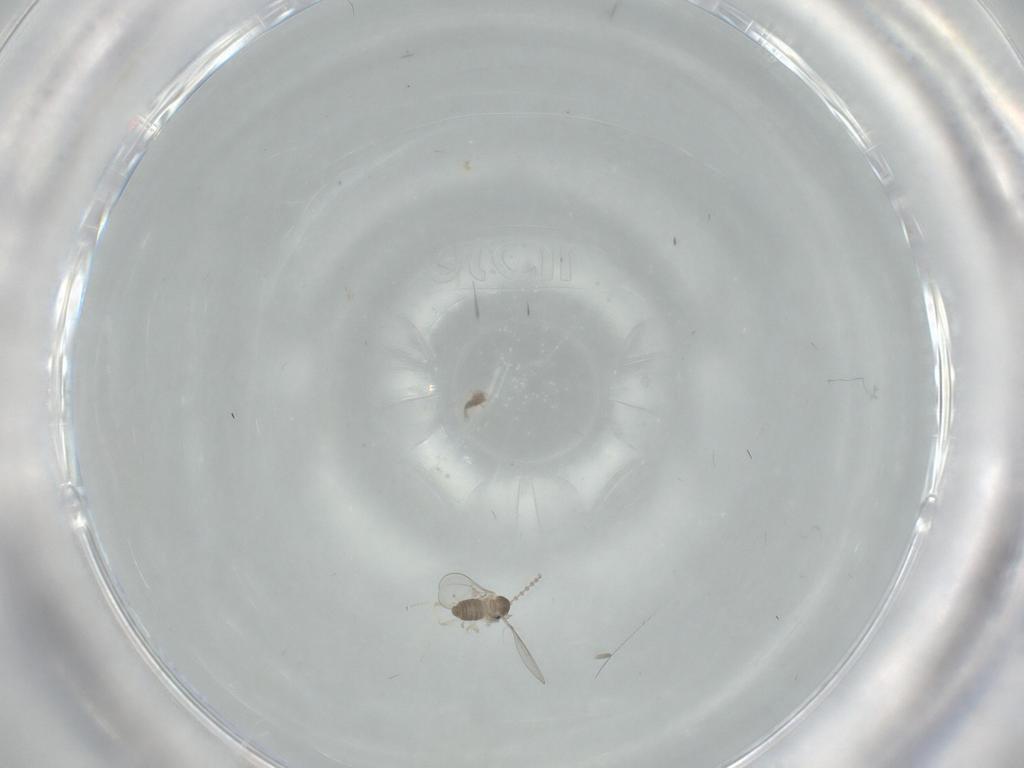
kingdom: Animalia
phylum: Arthropoda
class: Insecta
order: Diptera
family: Cecidomyiidae
